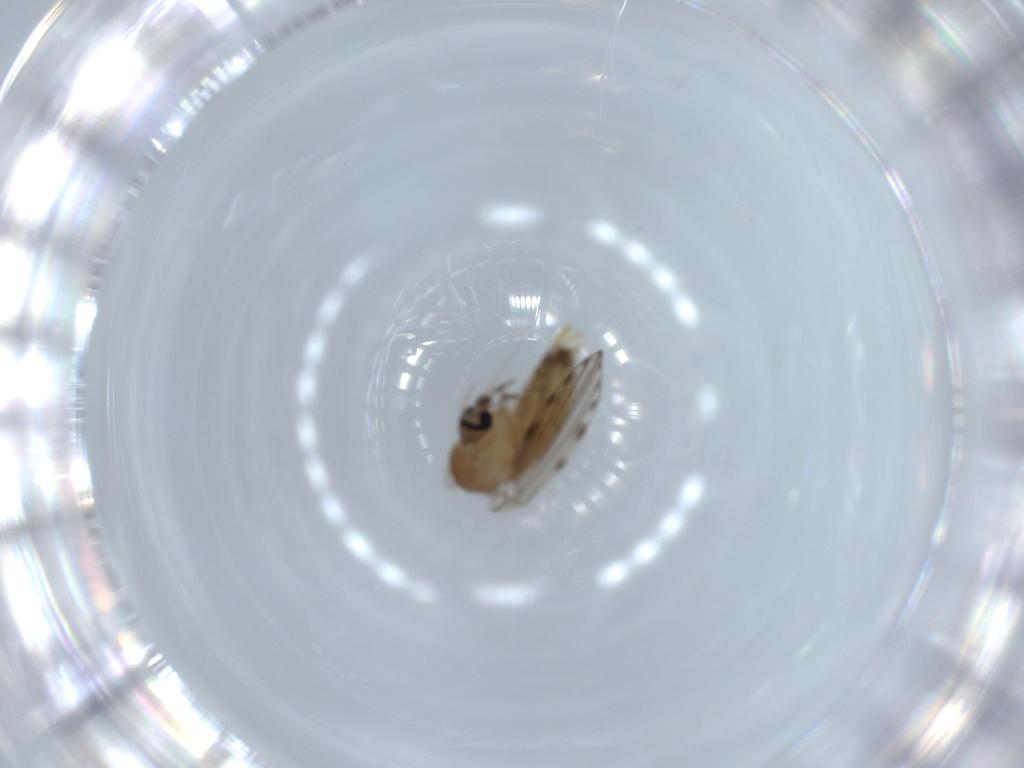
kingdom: Animalia
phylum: Arthropoda
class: Insecta
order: Diptera
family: Psychodidae
